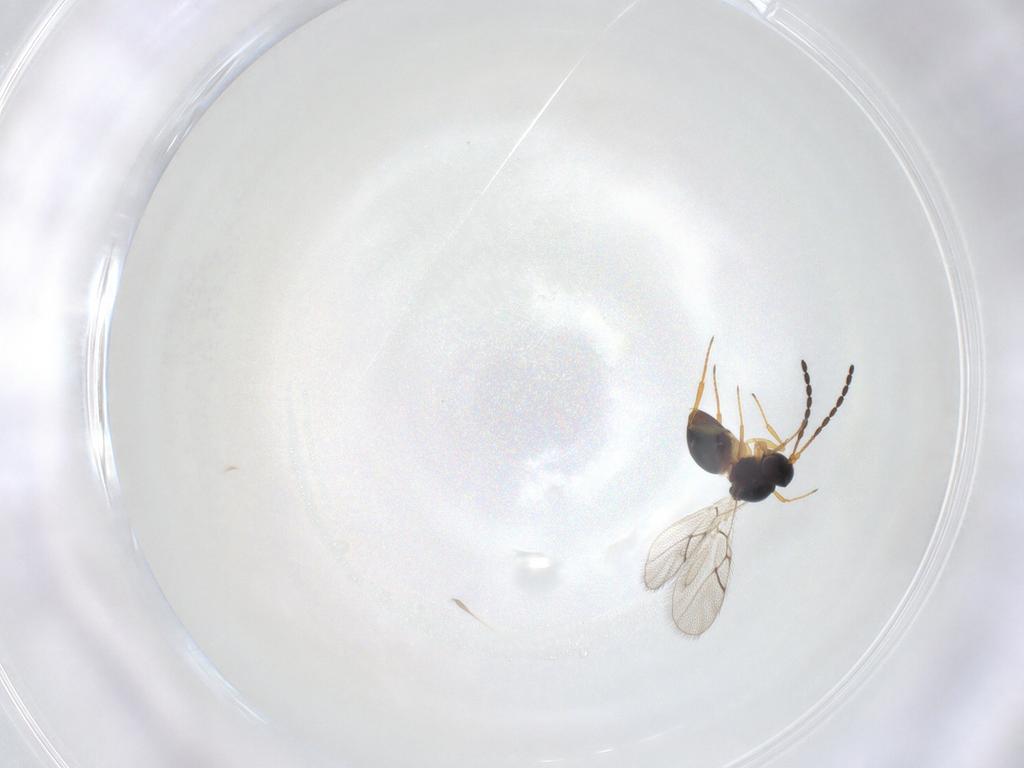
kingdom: Animalia
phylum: Arthropoda
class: Insecta
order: Hymenoptera
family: Figitidae
